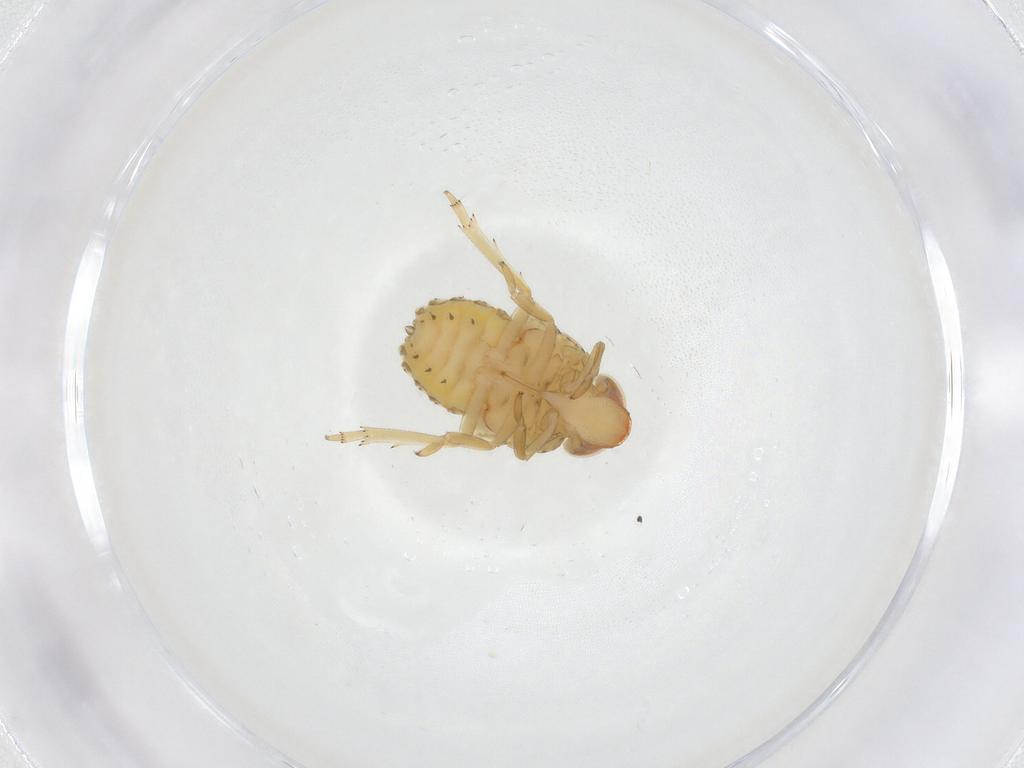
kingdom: Animalia
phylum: Arthropoda
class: Insecta
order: Hemiptera
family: Fulgoroidea_incertae_sedis
